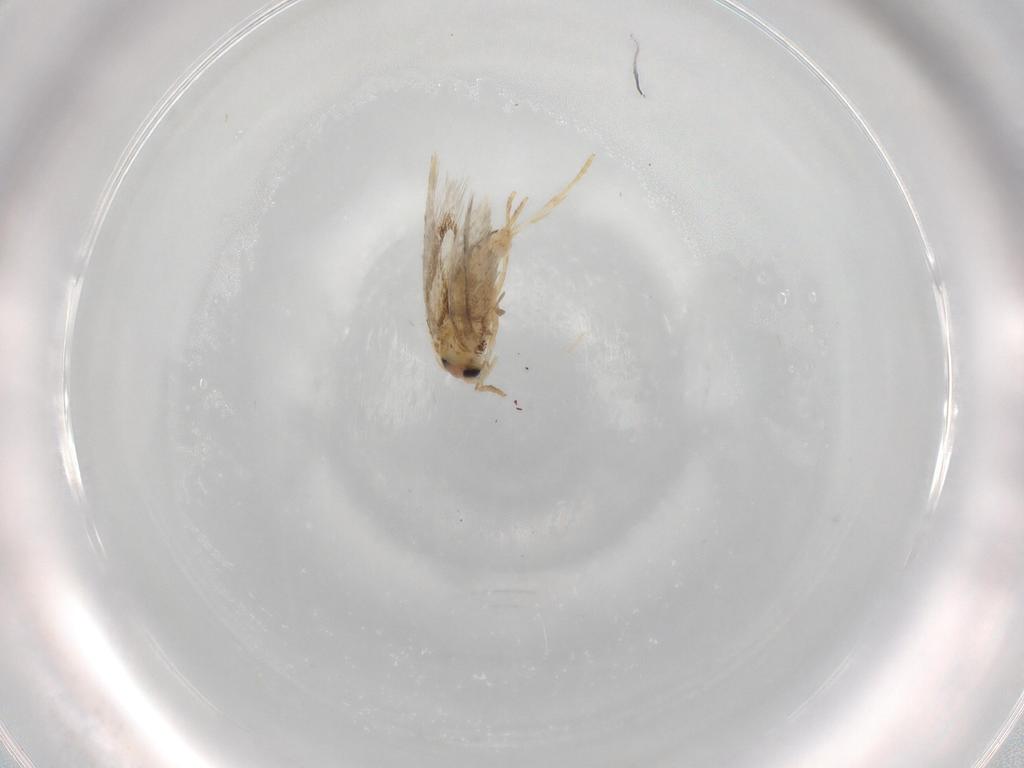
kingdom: Animalia
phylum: Arthropoda
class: Insecta
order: Lepidoptera
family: Nepticulidae
